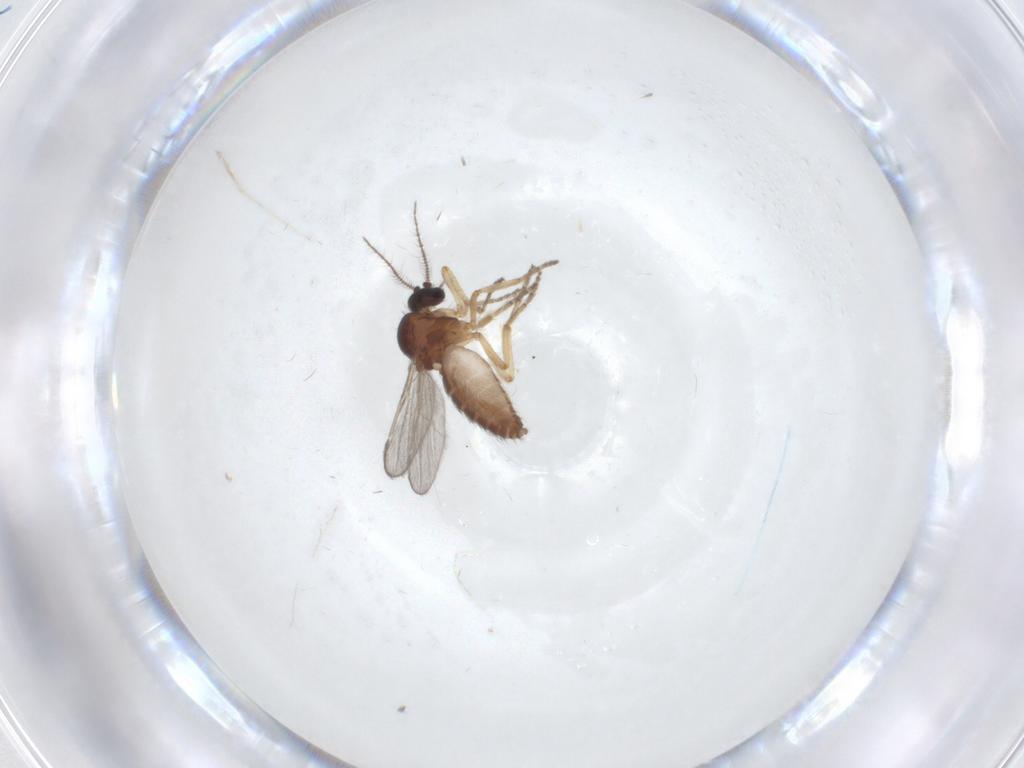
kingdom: Animalia
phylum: Arthropoda
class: Insecta
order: Diptera
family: Ceratopogonidae
